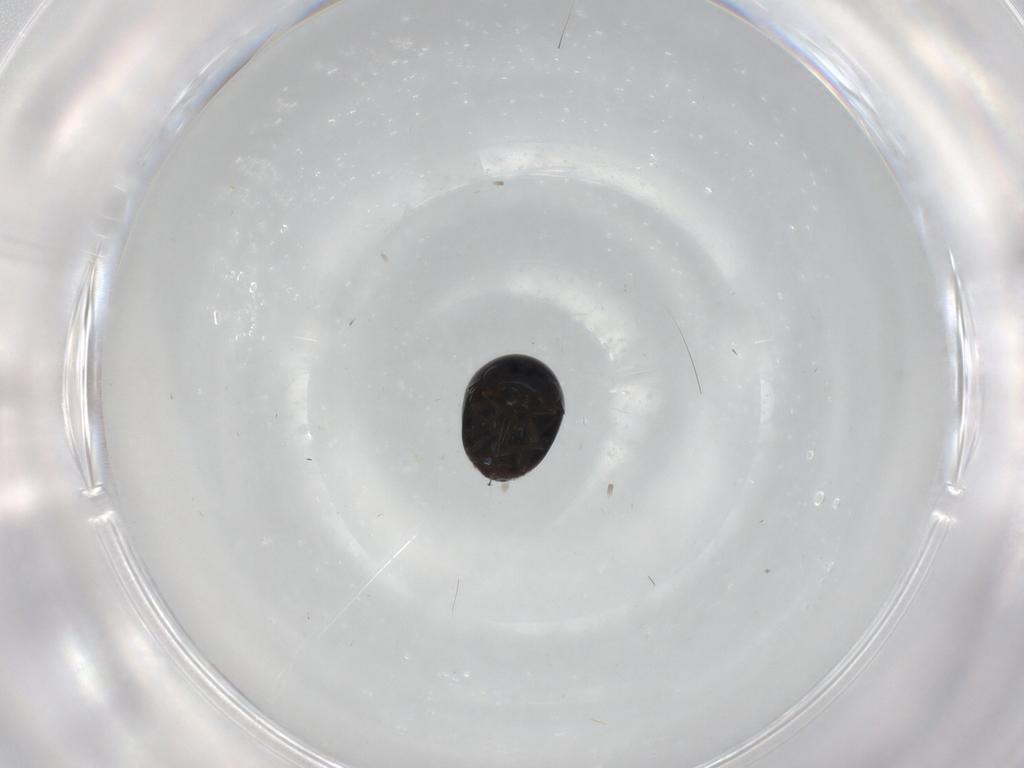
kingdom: Animalia
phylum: Arthropoda
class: Insecta
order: Coleoptera
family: Cybocephalidae
